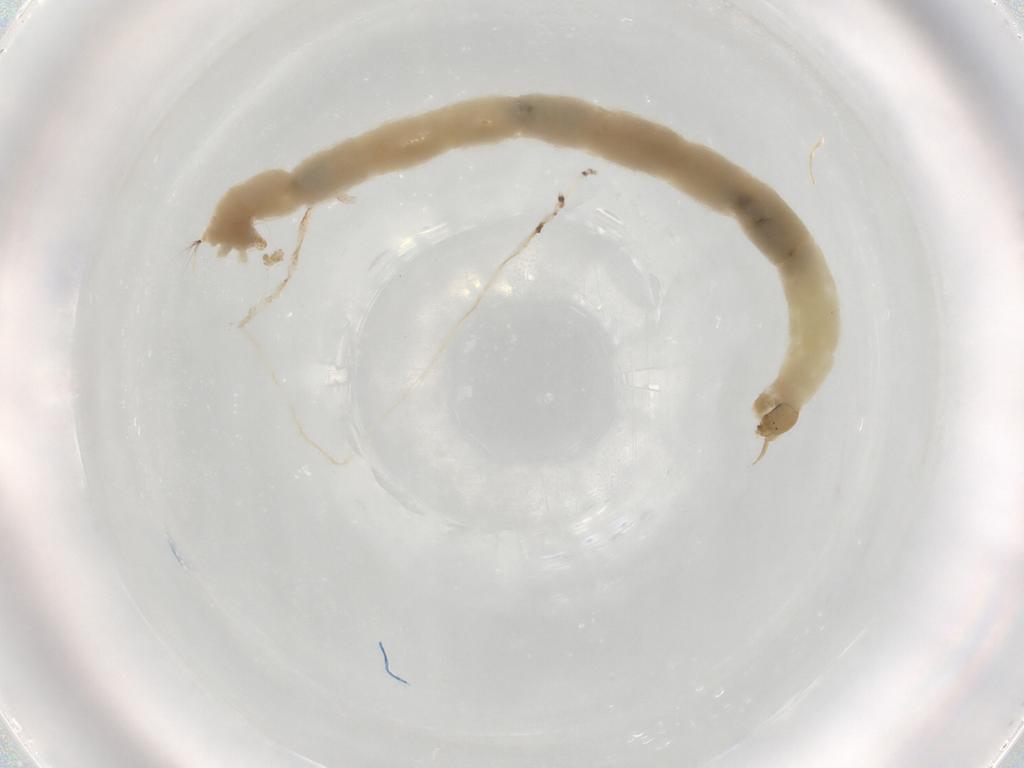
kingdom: Animalia
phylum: Arthropoda
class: Insecta
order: Diptera
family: Chironomidae
